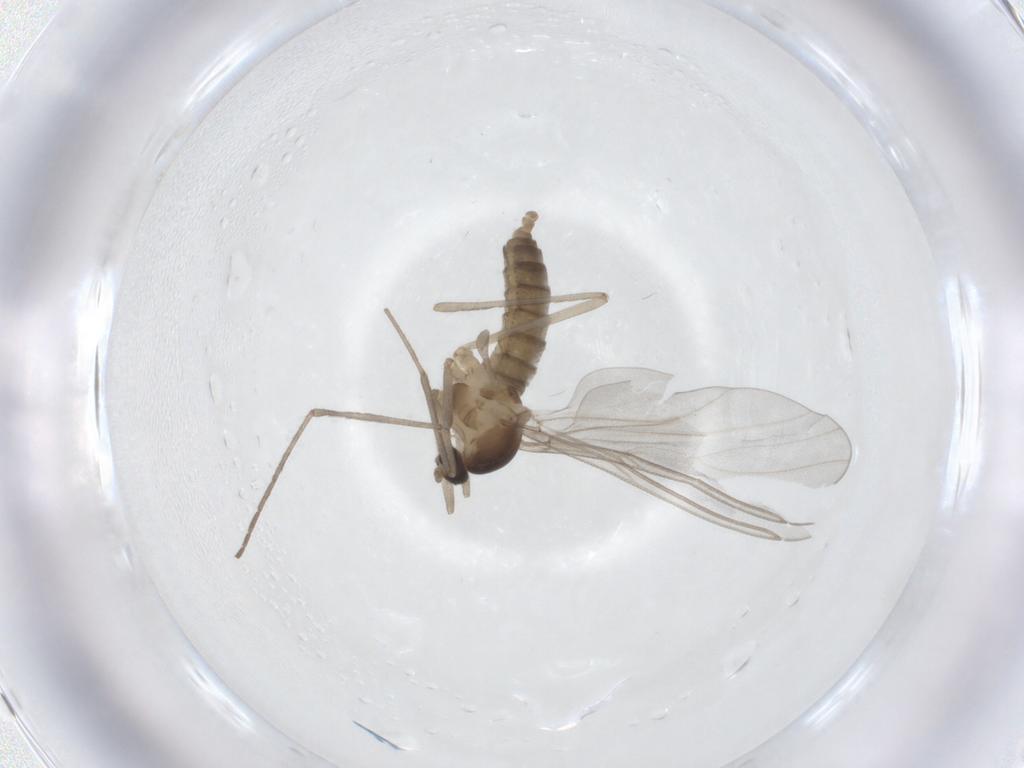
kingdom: Animalia
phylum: Arthropoda
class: Insecta
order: Diptera
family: Cecidomyiidae
